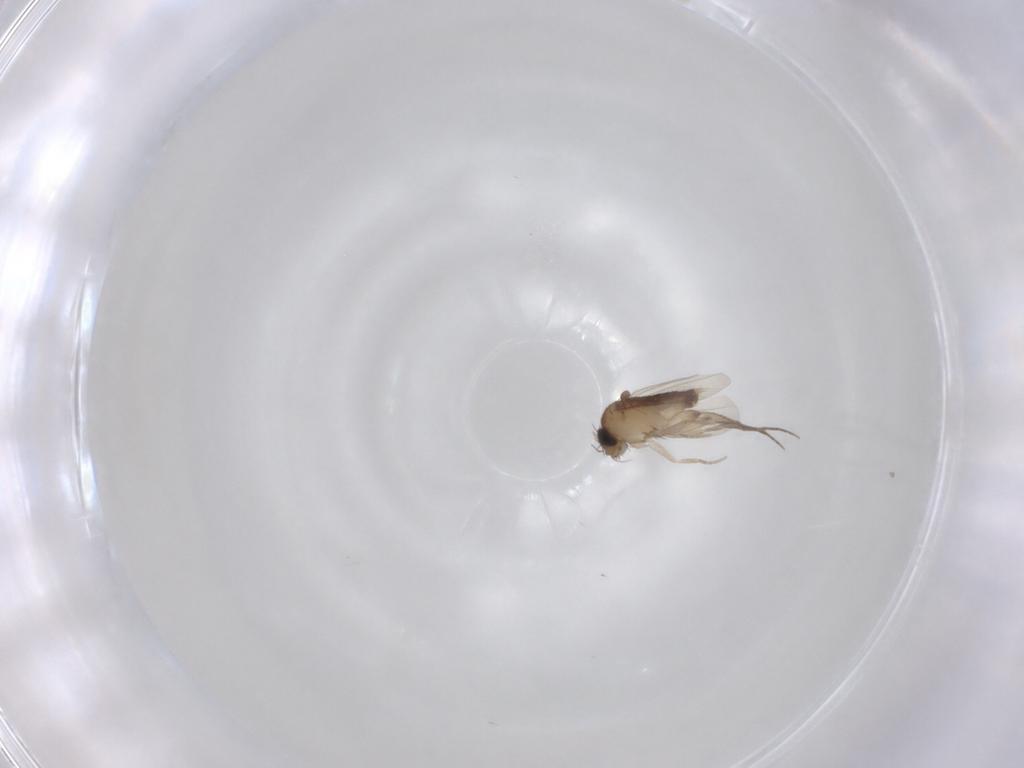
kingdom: Animalia
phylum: Arthropoda
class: Insecta
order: Diptera
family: Phoridae
